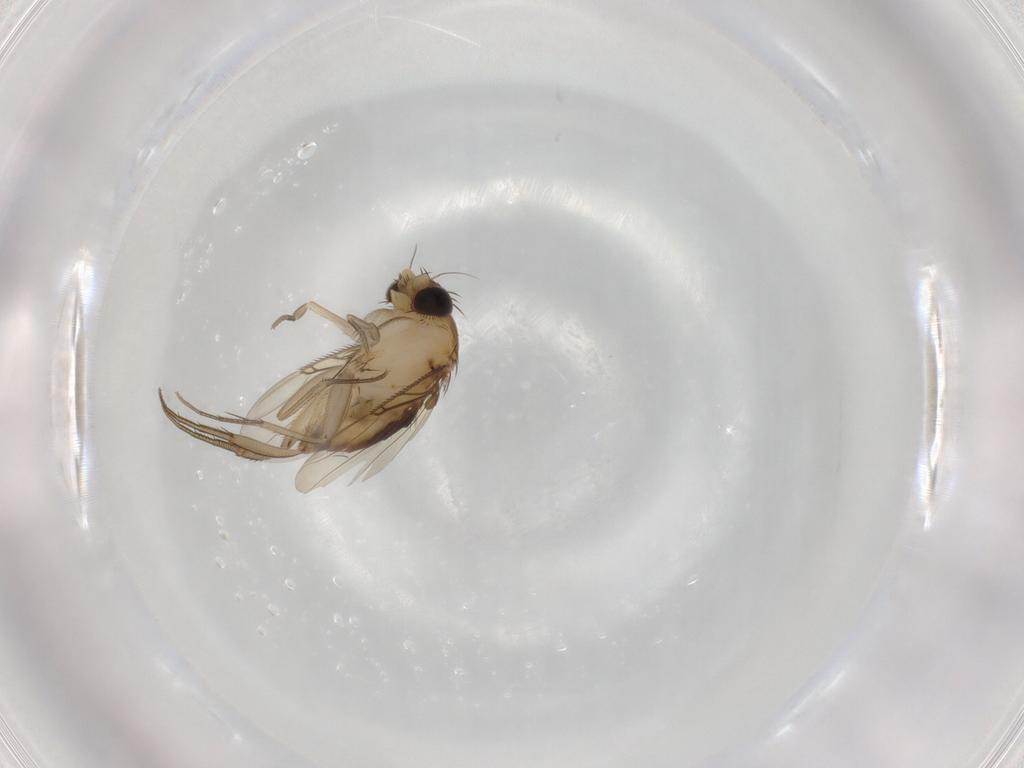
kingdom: Animalia
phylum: Arthropoda
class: Insecta
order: Diptera
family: Phoridae
